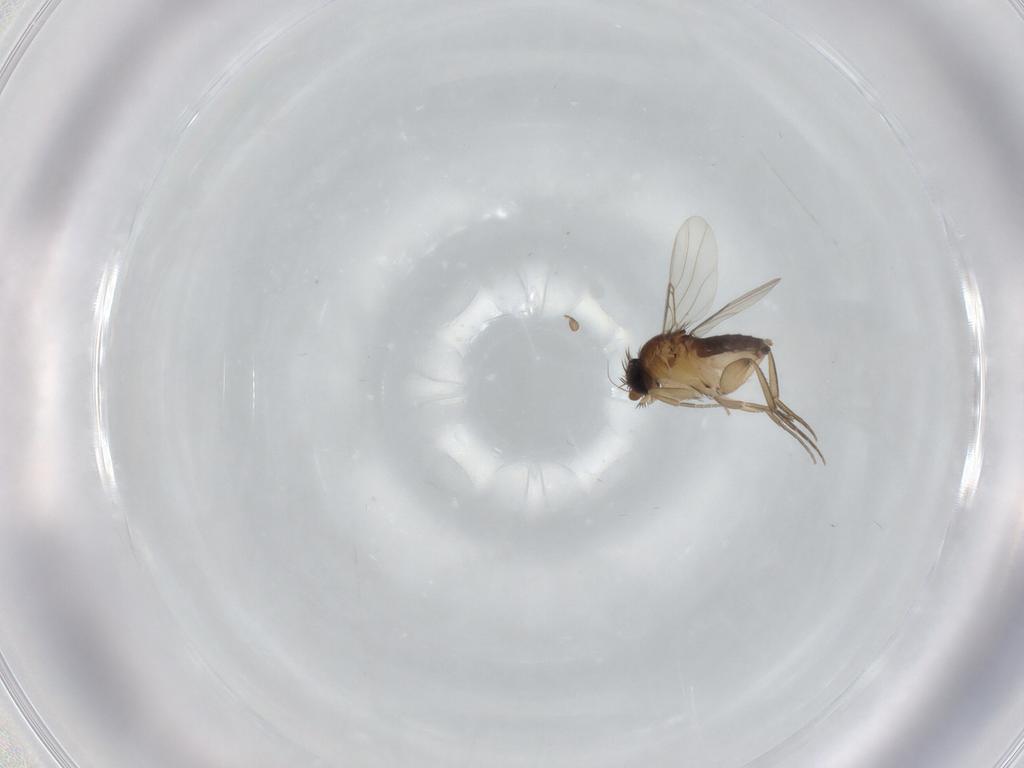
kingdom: Animalia
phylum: Arthropoda
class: Insecta
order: Diptera
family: Phoridae
